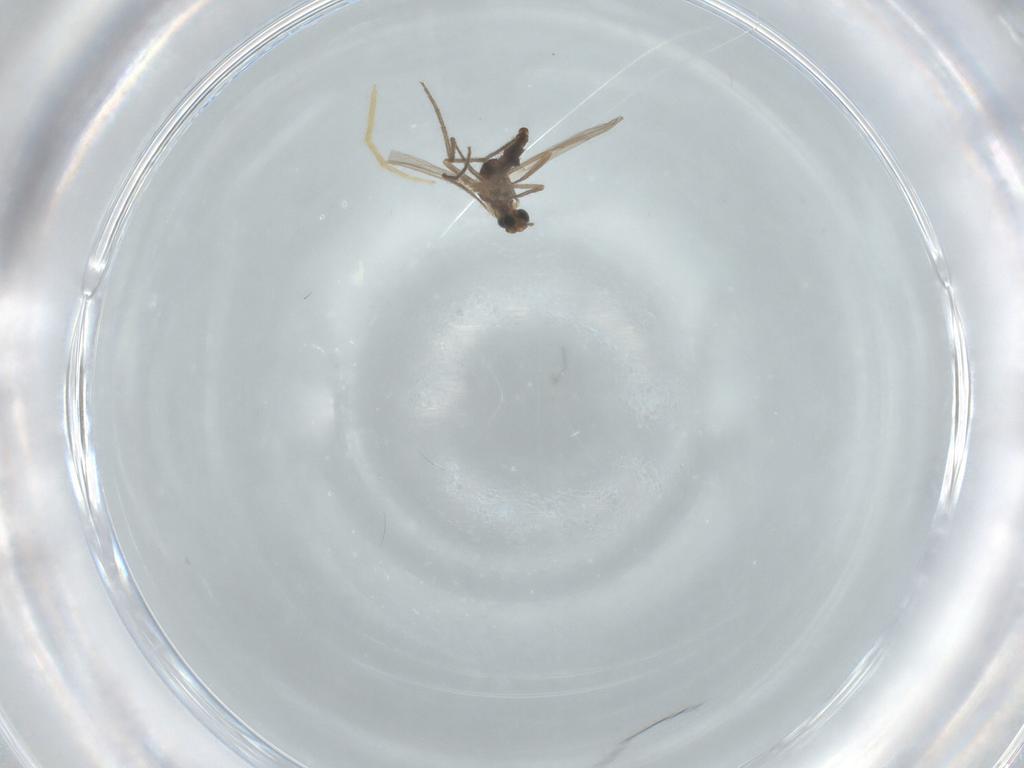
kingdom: Animalia
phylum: Arthropoda
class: Insecta
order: Diptera
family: Chironomidae
